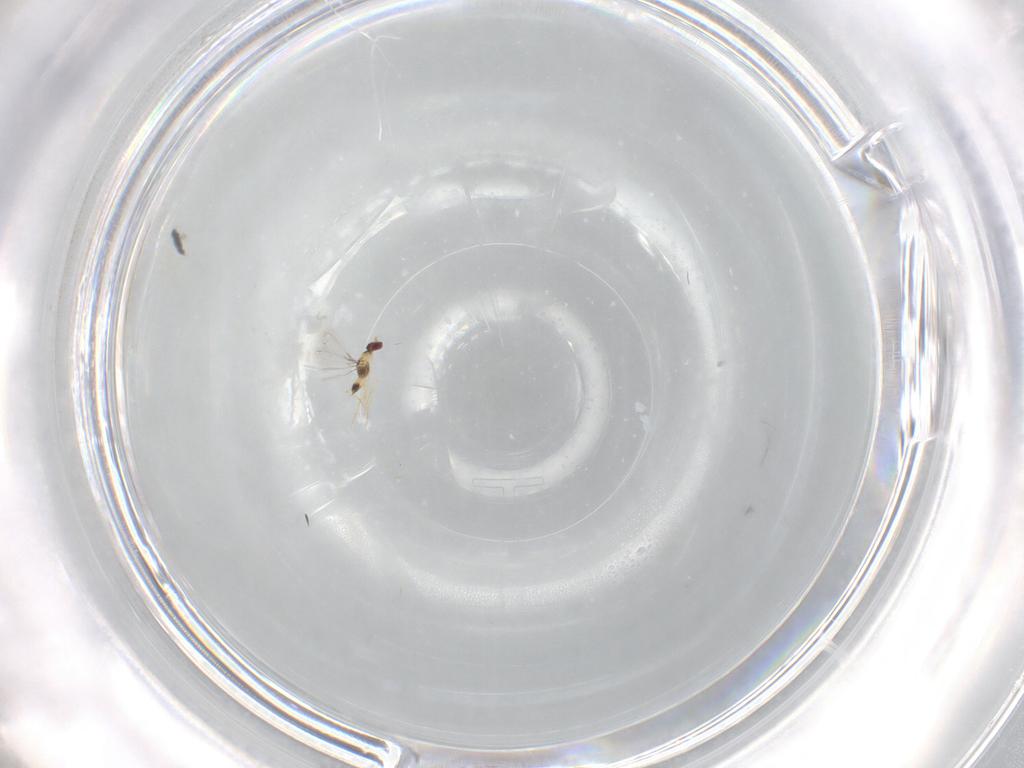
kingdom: Animalia
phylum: Arthropoda
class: Insecta
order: Hymenoptera
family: Mymaridae
